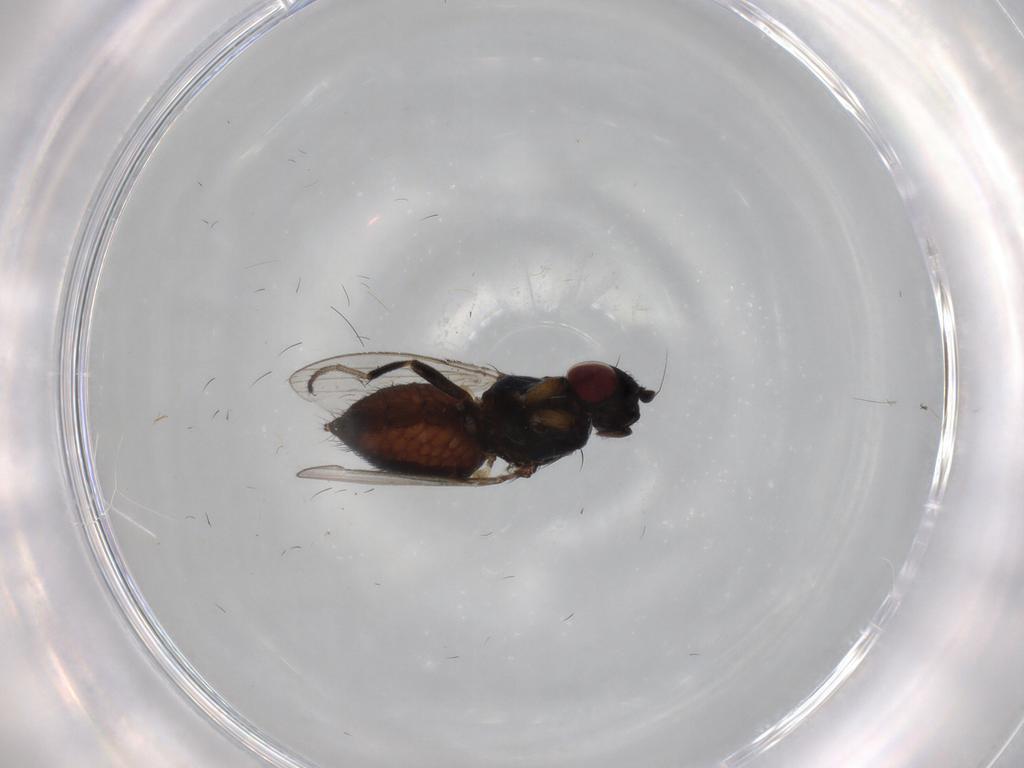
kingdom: Animalia
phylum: Arthropoda
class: Insecta
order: Diptera
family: Milichiidae
